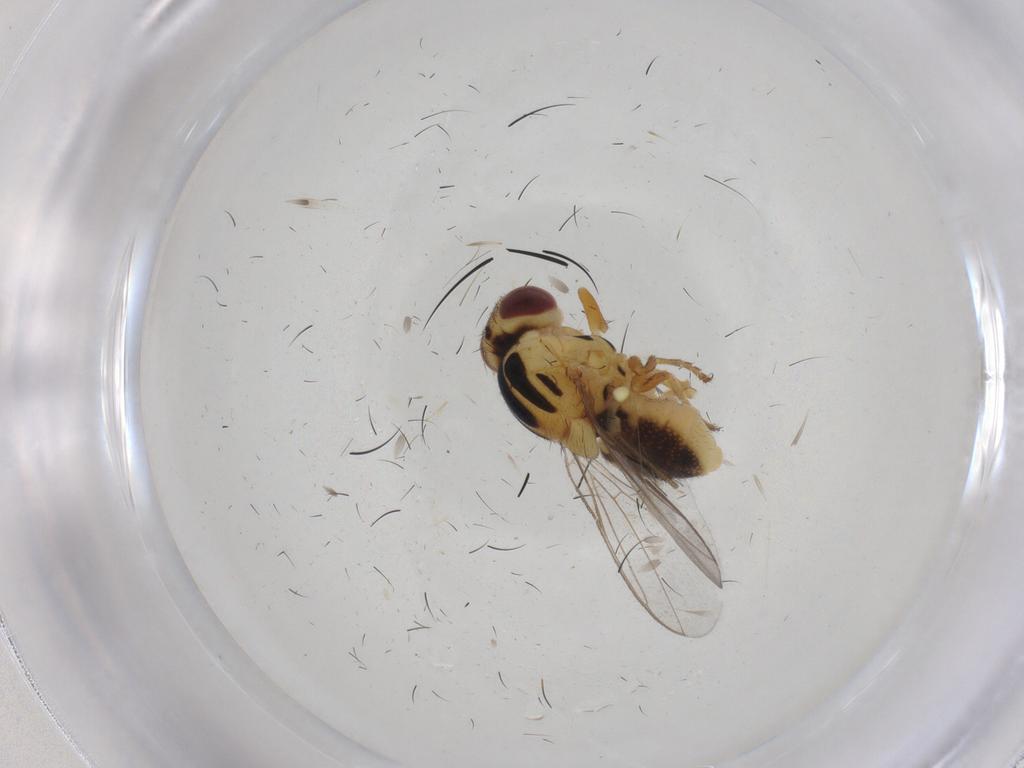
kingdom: Animalia
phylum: Arthropoda
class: Insecta
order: Diptera
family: Chloropidae
